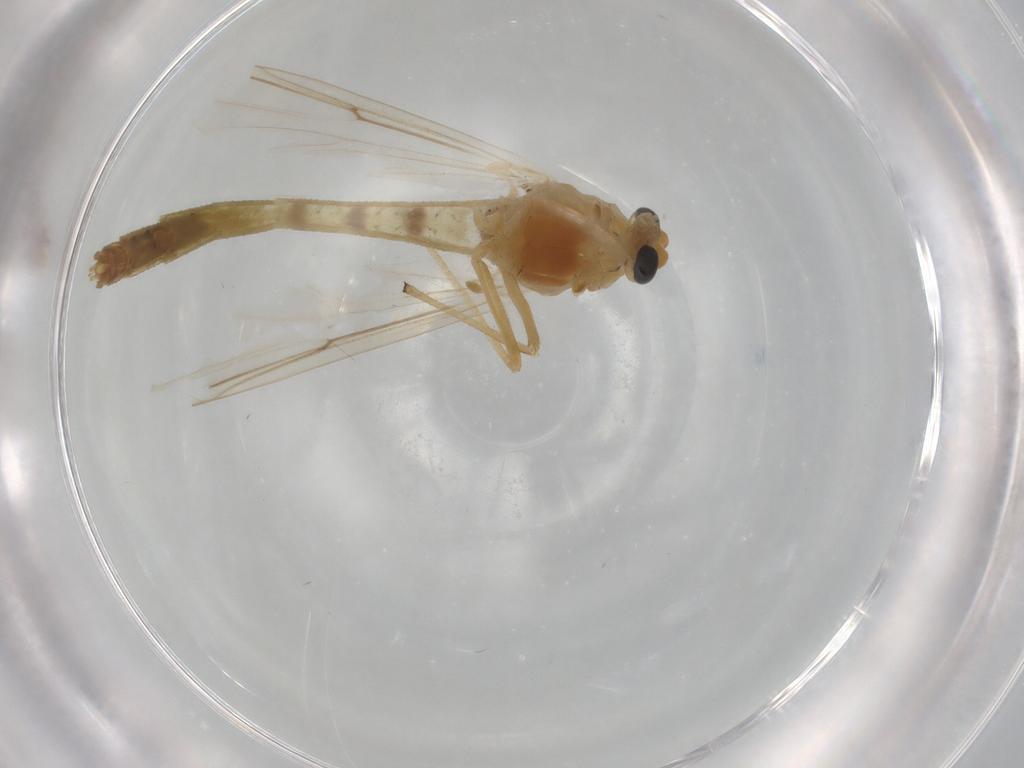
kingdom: Animalia
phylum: Arthropoda
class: Insecta
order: Diptera
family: Chironomidae
